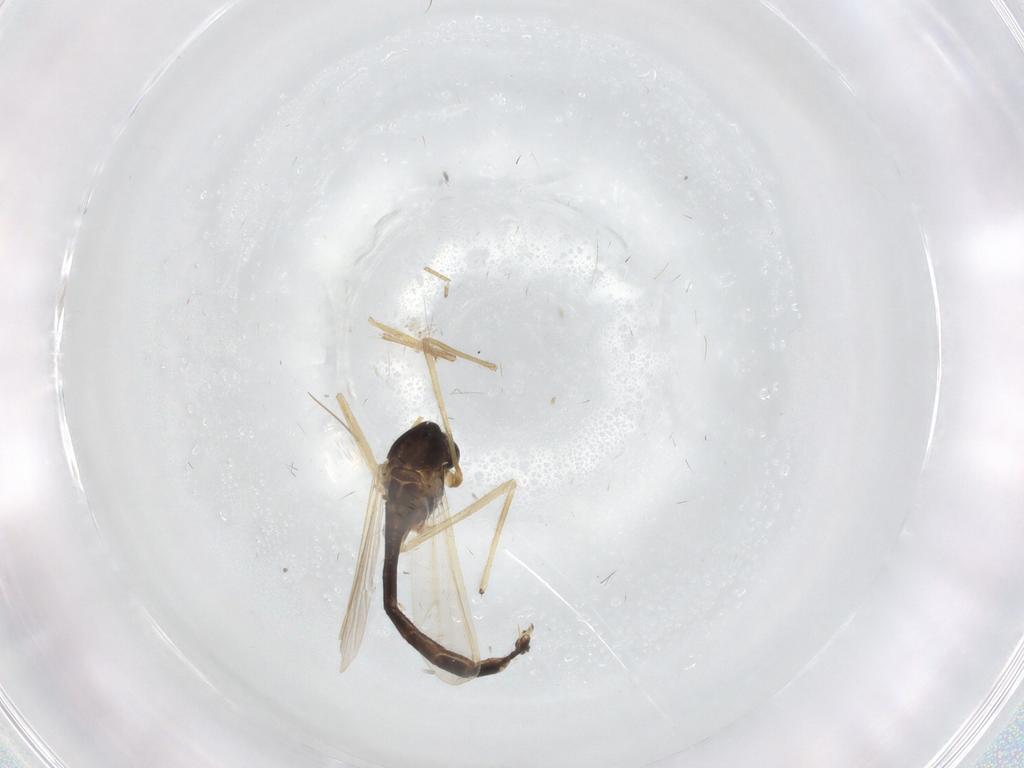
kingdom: Animalia
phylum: Arthropoda
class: Insecta
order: Diptera
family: Chironomidae
